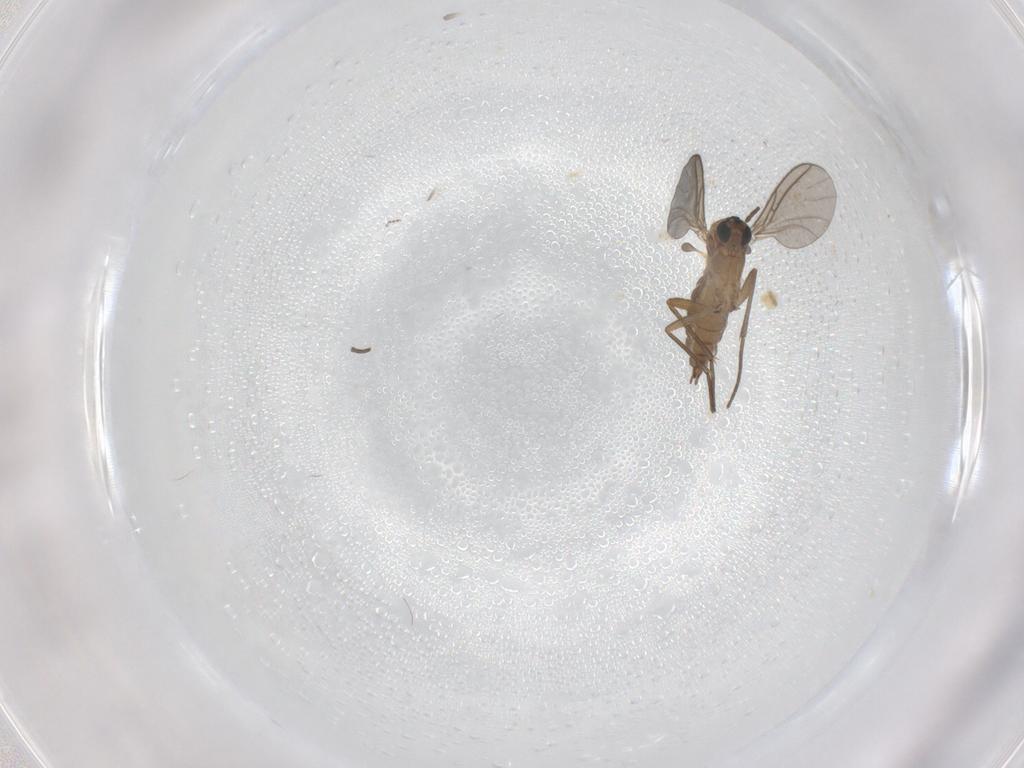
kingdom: Animalia
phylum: Arthropoda
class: Insecta
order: Diptera
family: Sciaridae
